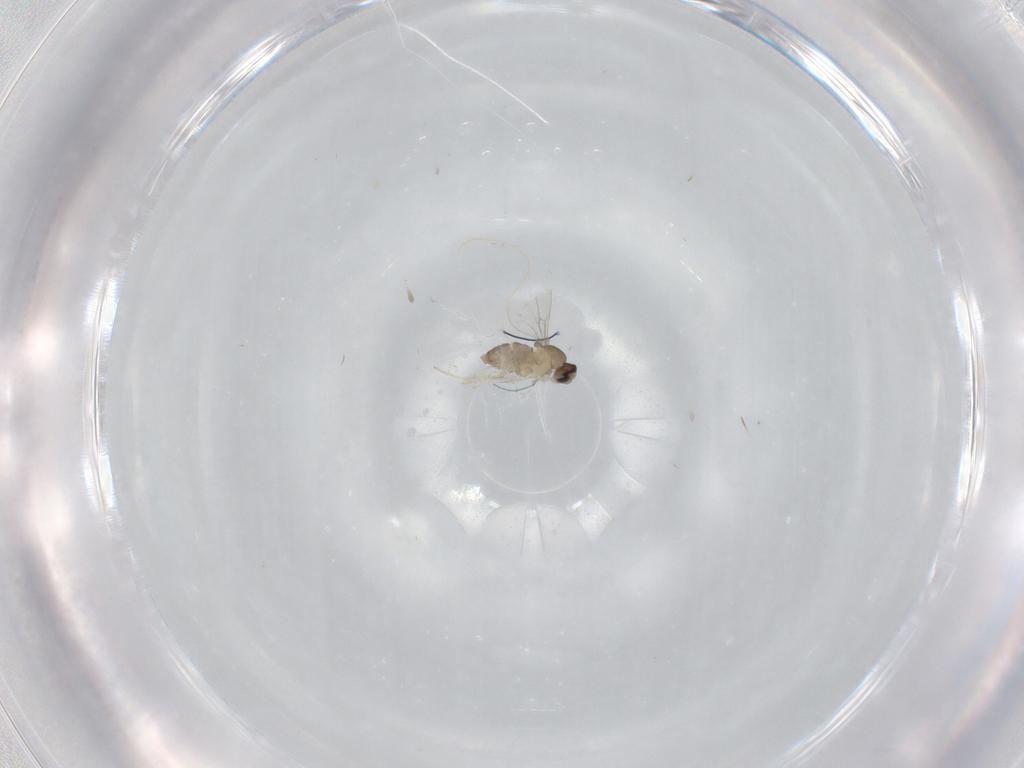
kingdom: Animalia
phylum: Arthropoda
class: Insecta
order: Diptera
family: Cecidomyiidae
